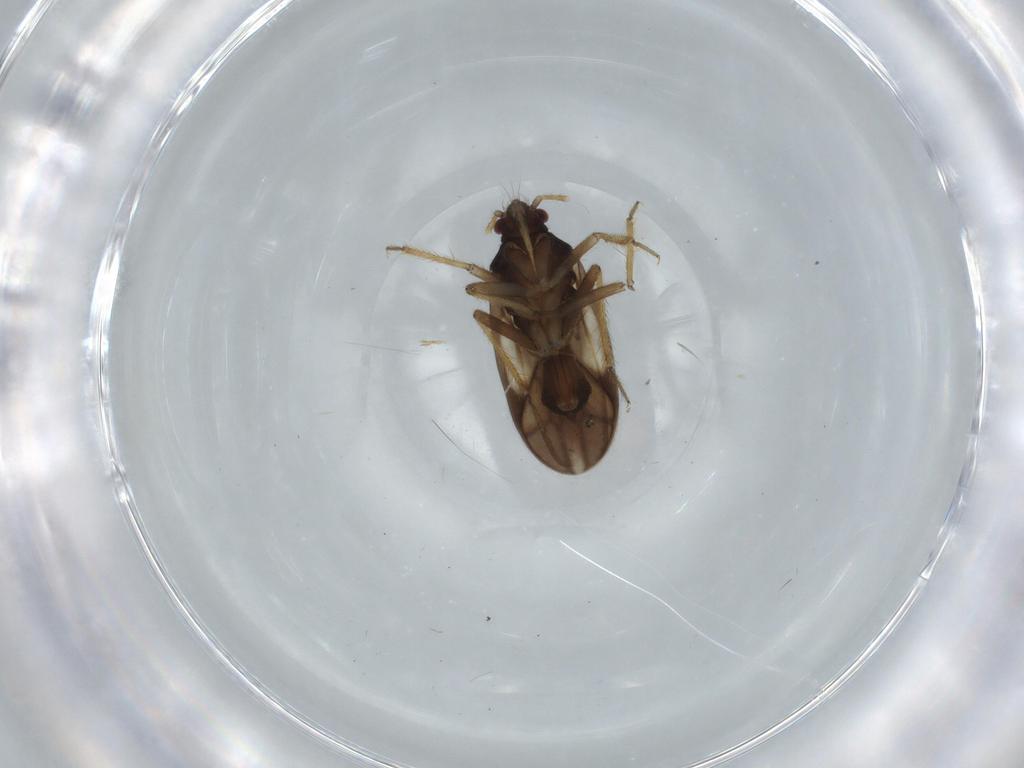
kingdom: Animalia
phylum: Arthropoda
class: Insecta
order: Hemiptera
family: Ceratocombidae
